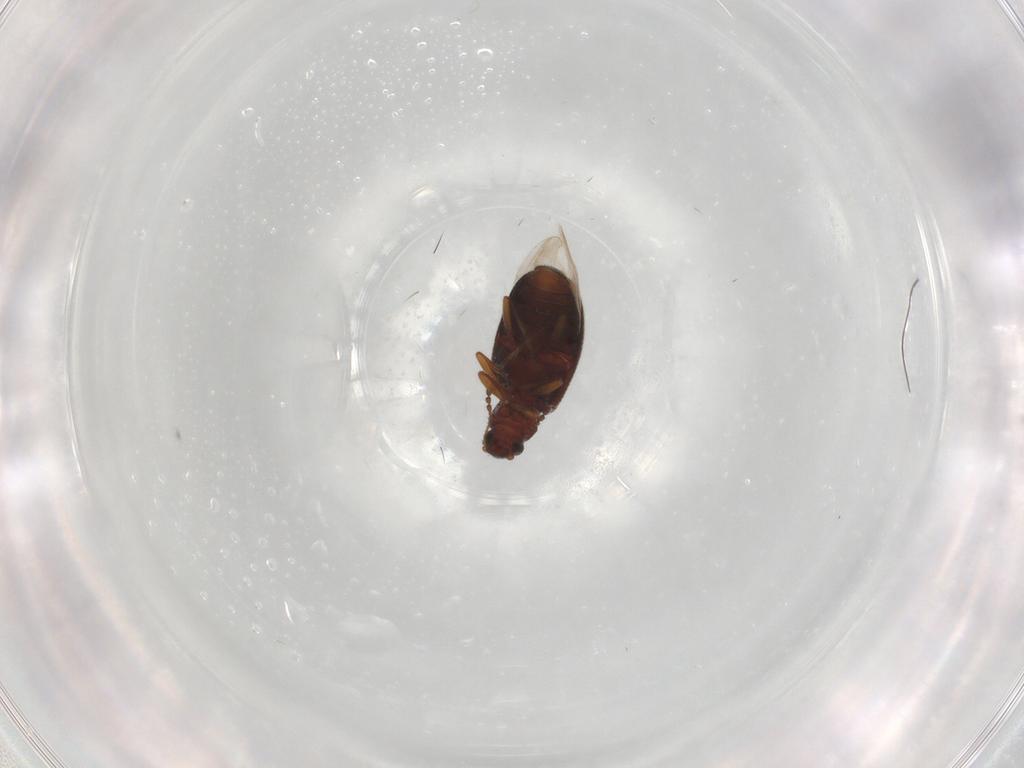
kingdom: Animalia
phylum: Arthropoda
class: Insecta
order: Coleoptera
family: Latridiidae
